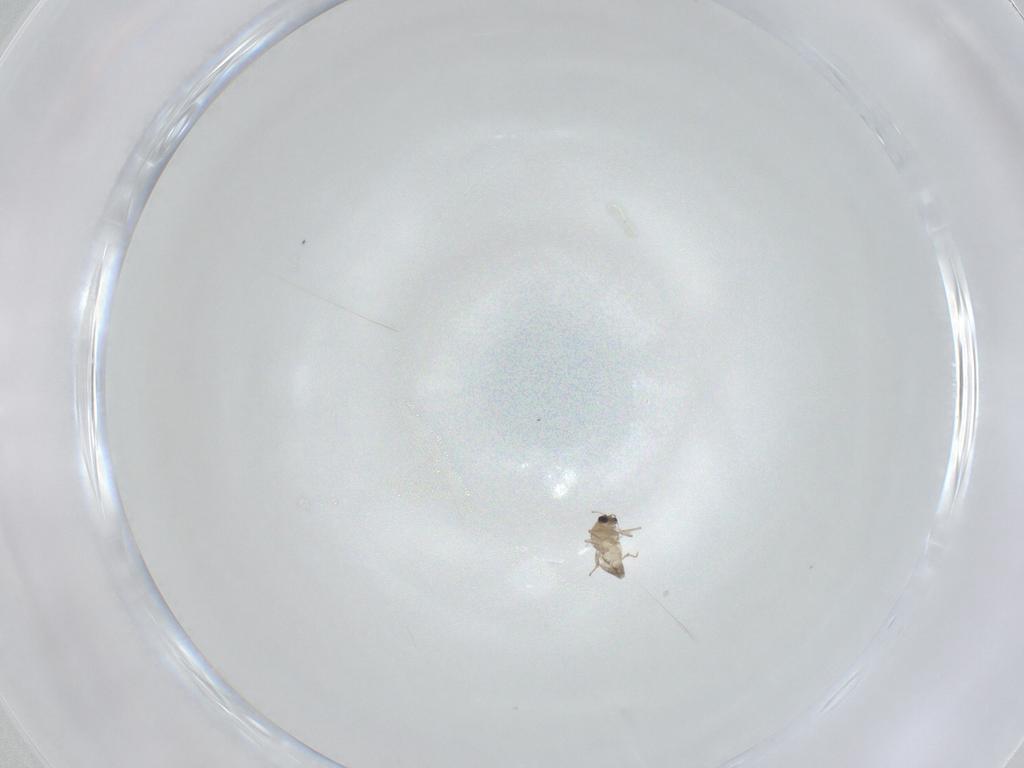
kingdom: Animalia
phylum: Arthropoda
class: Insecta
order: Diptera
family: Chironomidae
